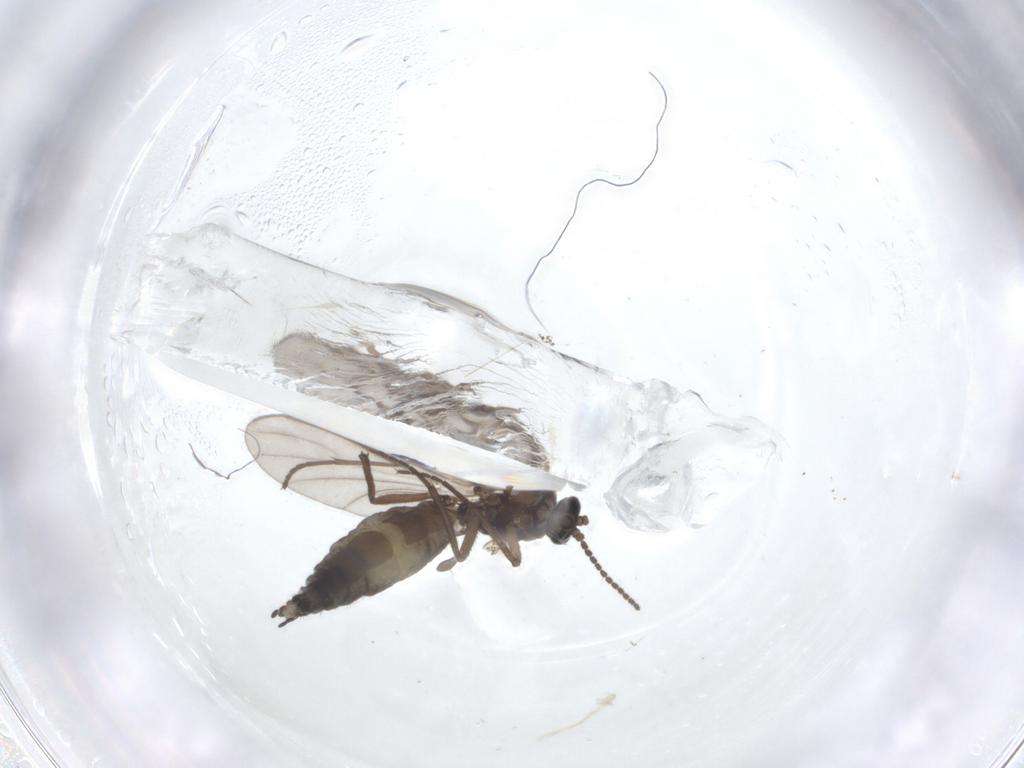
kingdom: Animalia
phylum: Arthropoda
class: Insecta
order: Diptera
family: Sciaridae
